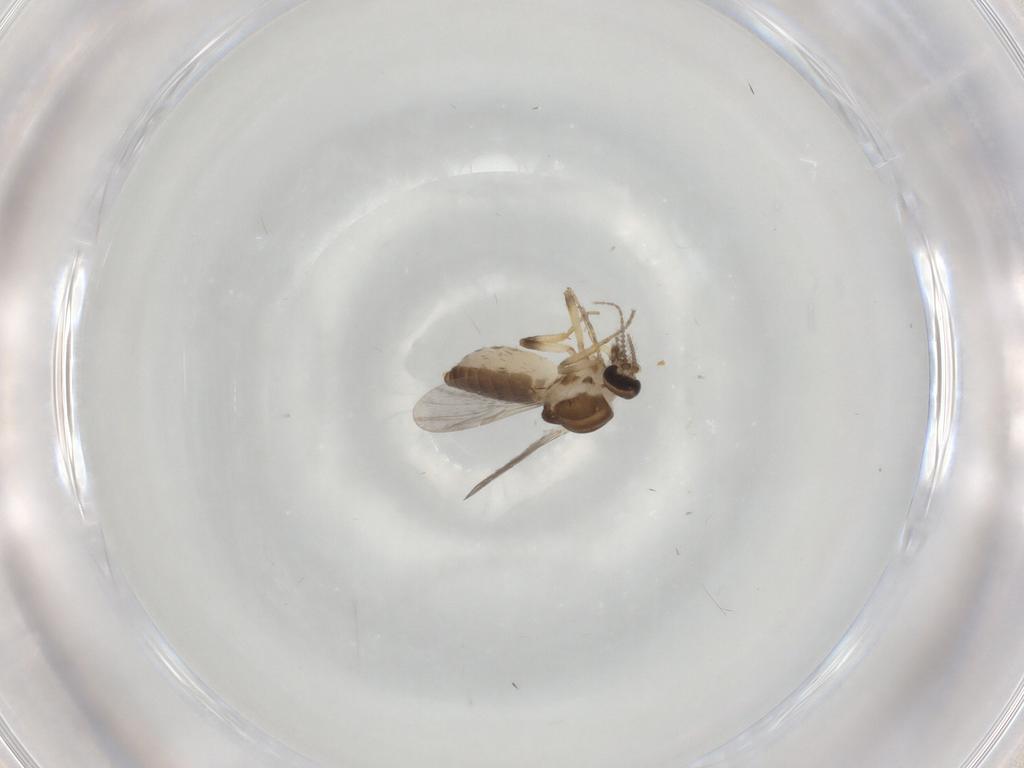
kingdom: Animalia
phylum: Arthropoda
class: Insecta
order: Diptera
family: Ceratopogonidae
